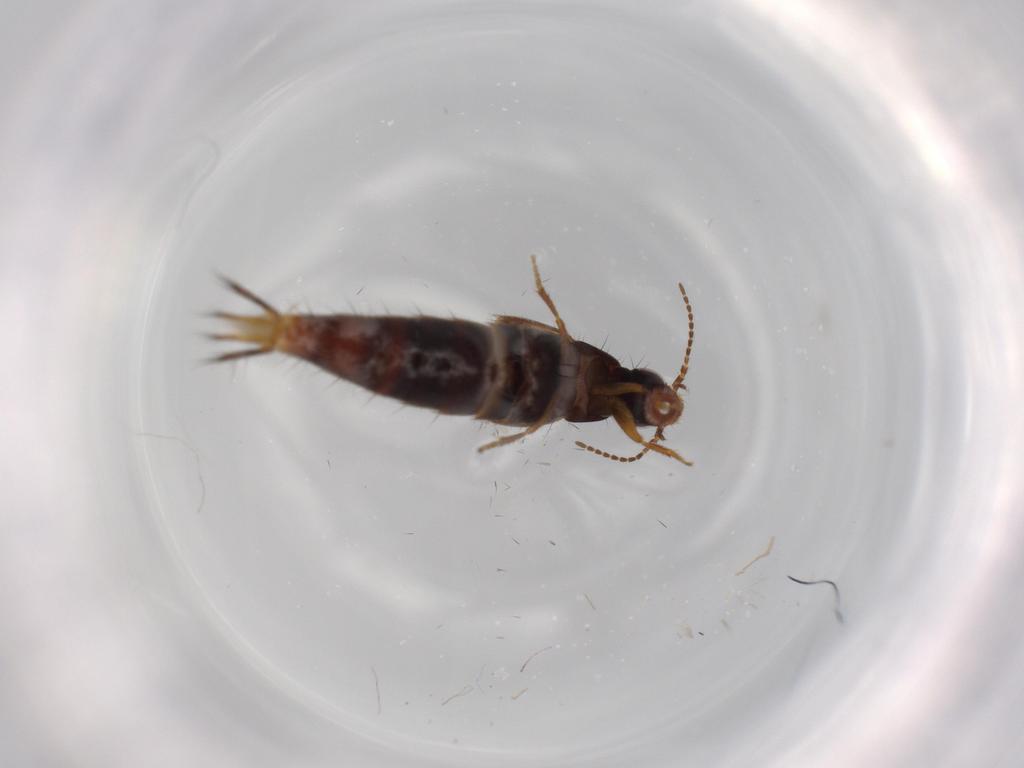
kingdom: Animalia
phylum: Arthropoda
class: Insecta
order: Coleoptera
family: Staphylinidae
